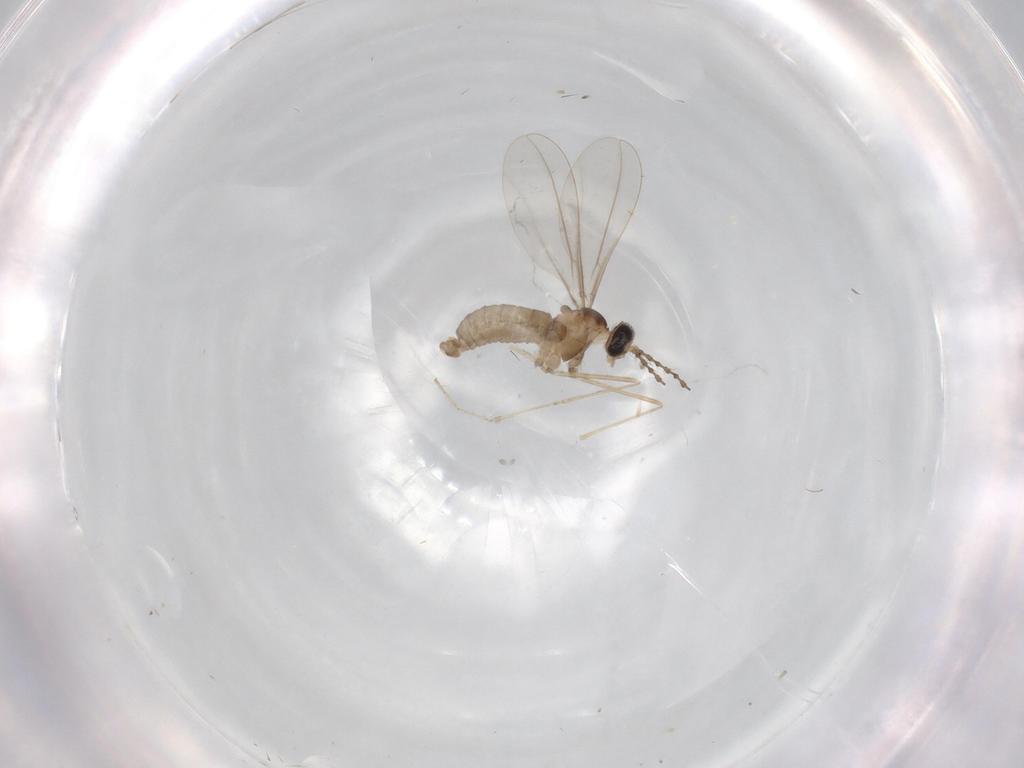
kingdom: Animalia
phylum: Arthropoda
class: Insecta
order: Diptera
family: Cecidomyiidae
